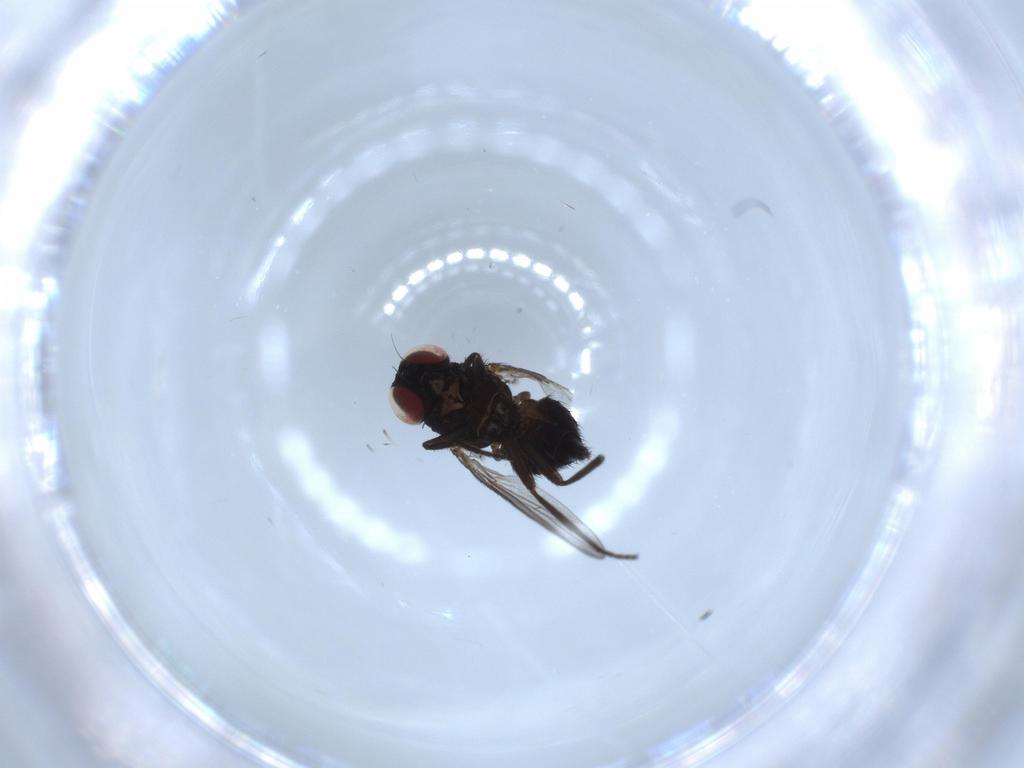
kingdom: Animalia
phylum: Arthropoda
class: Insecta
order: Diptera
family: Agromyzidae
